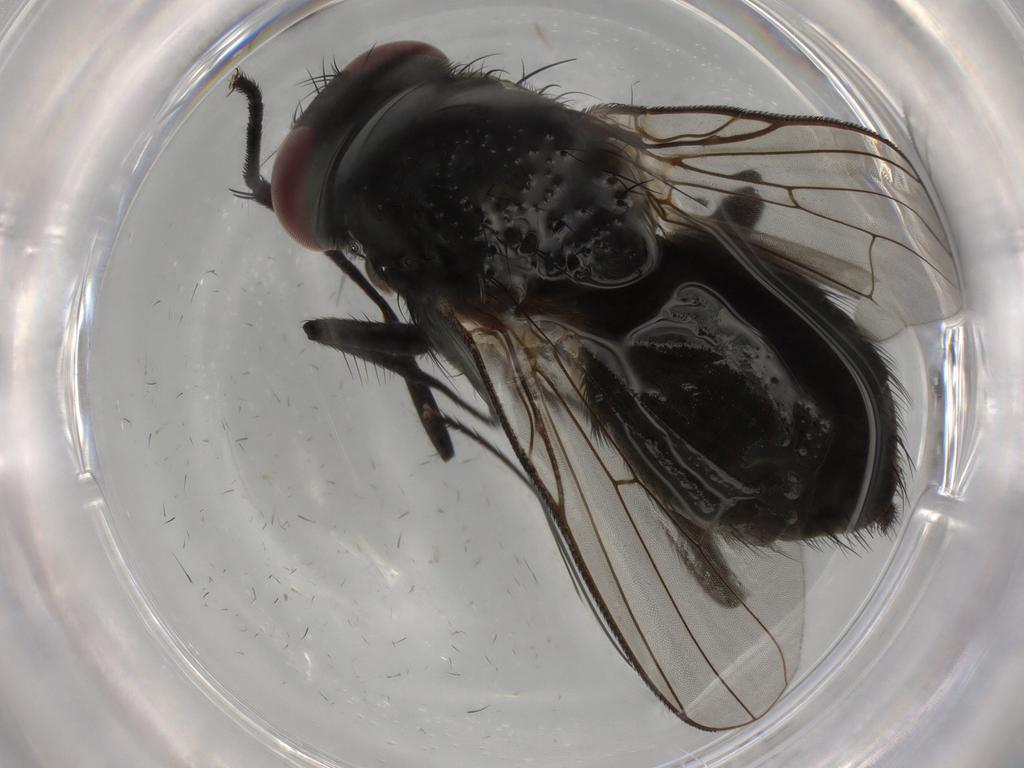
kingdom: Animalia
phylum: Arthropoda
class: Insecta
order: Diptera
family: Muscidae
